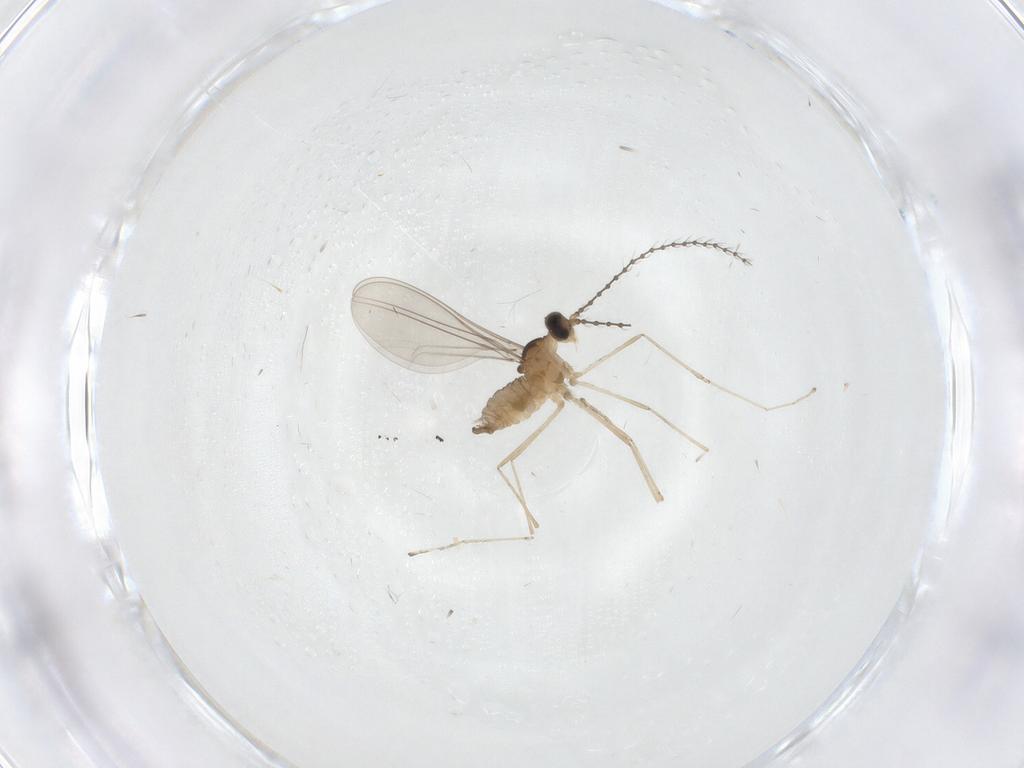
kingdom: Animalia
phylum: Arthropoda
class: Insecta
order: Diptera
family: Cecidomyiidae
